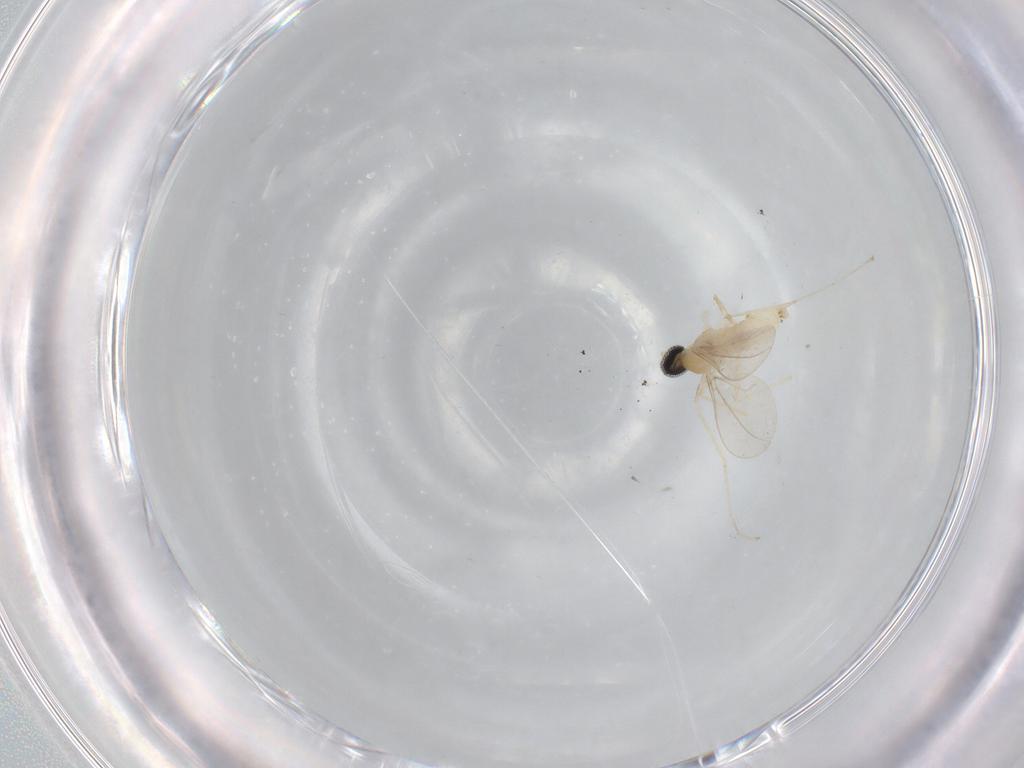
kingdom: Animalia
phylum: Arthropoda
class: Insecta
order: Diptera
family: Cecidomyiidae
